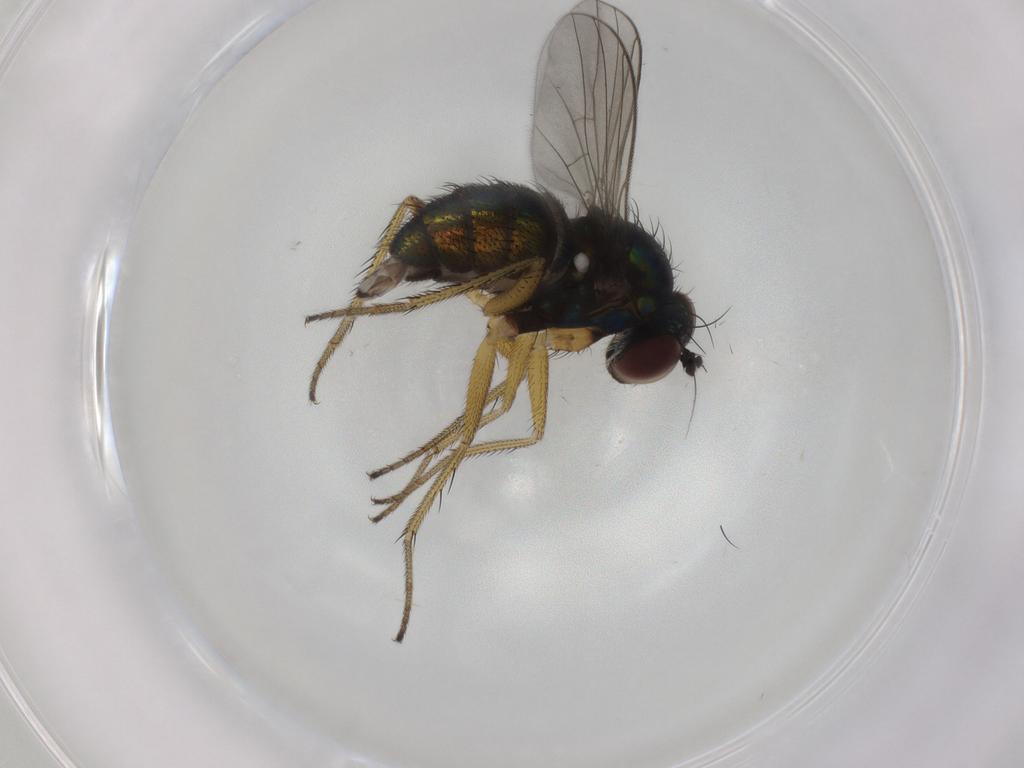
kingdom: Animalia
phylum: Arthropoda
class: Insecta
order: Diptera
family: Dolichopodidae
